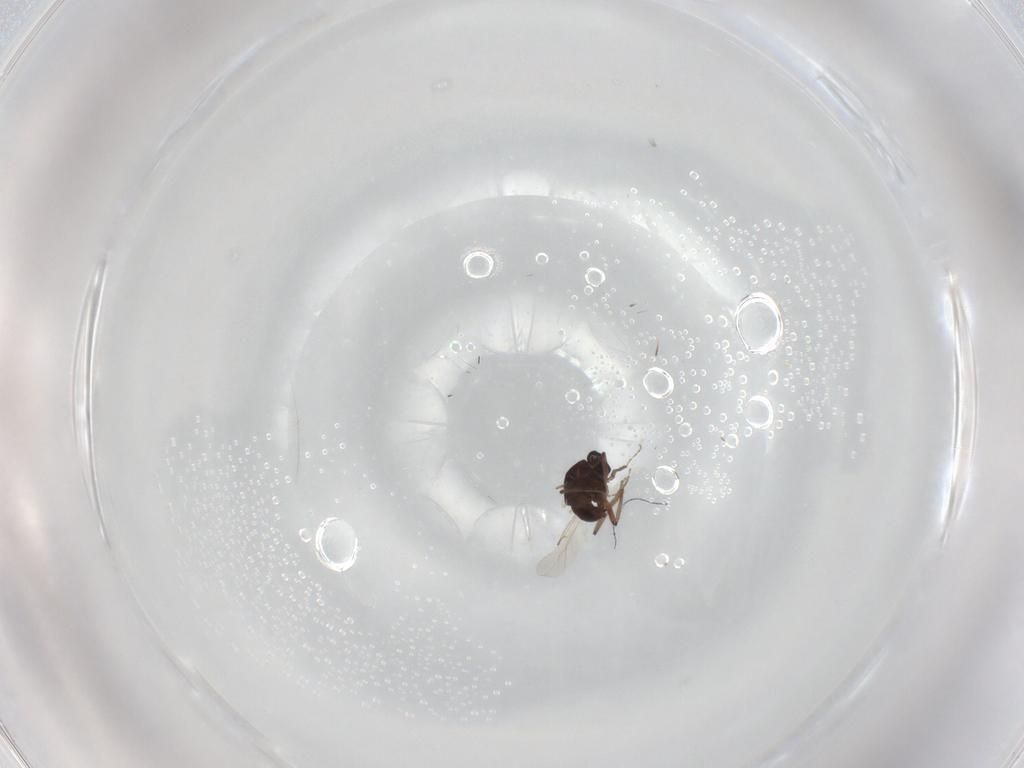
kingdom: Animalia
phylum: Arthropoda
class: Insecta
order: Diptera
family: Ceratopogonidae
